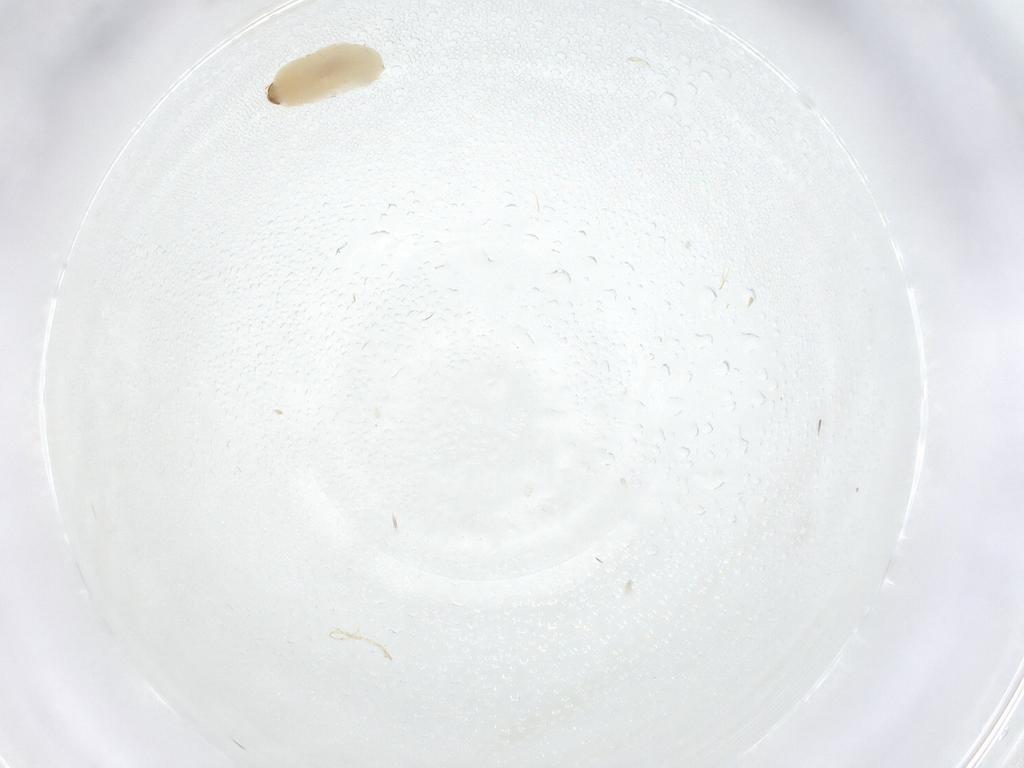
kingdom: Animalia
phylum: Arthropoda
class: Insecta
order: Coleoptera
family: Bostrichidae
